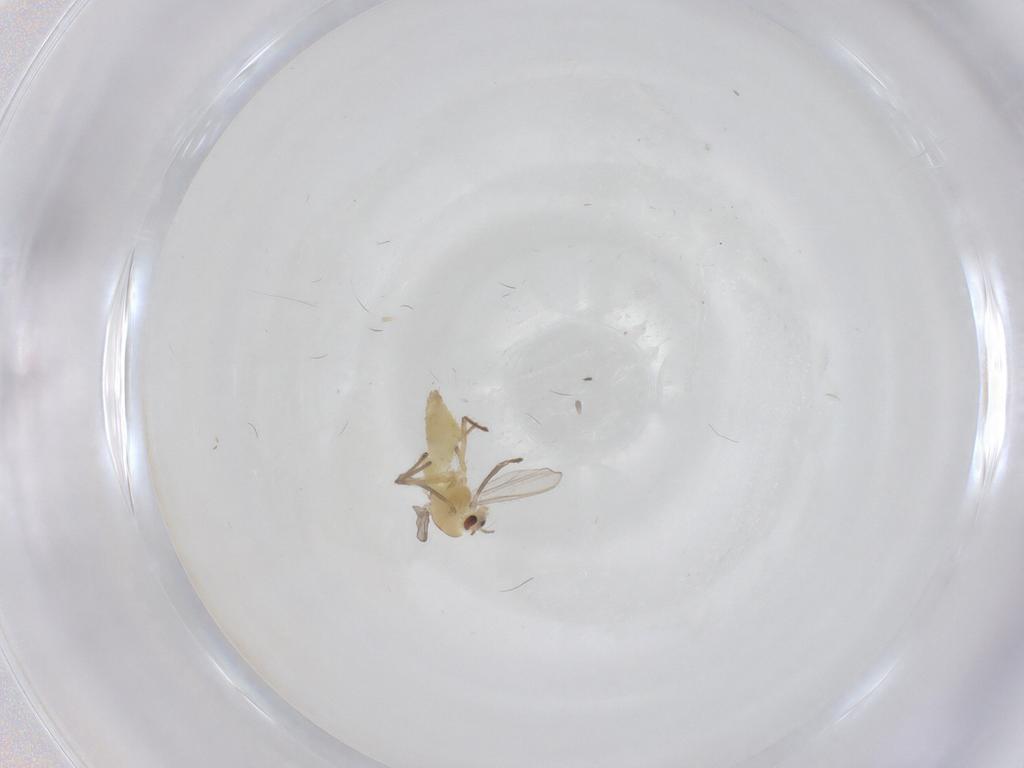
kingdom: Animalia
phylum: Arthropoda
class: Insecta
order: Diptera
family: Chironomidae
